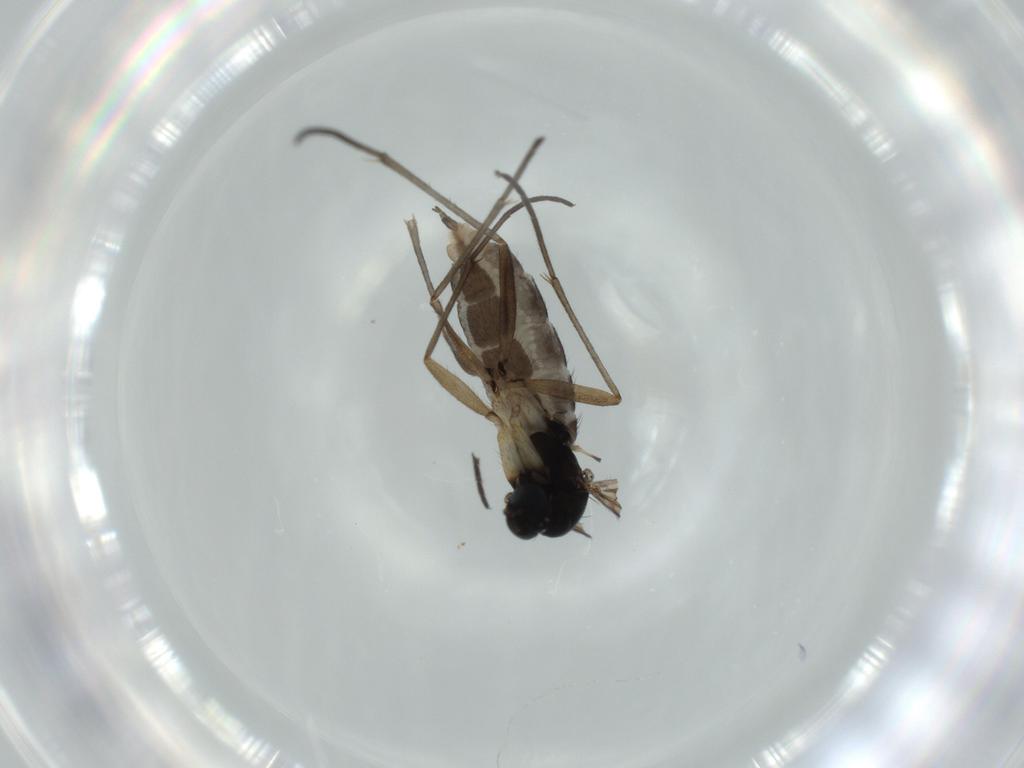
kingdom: Animalia
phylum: Arthropoda
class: Insecta
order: Diptera
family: Sciaridae
